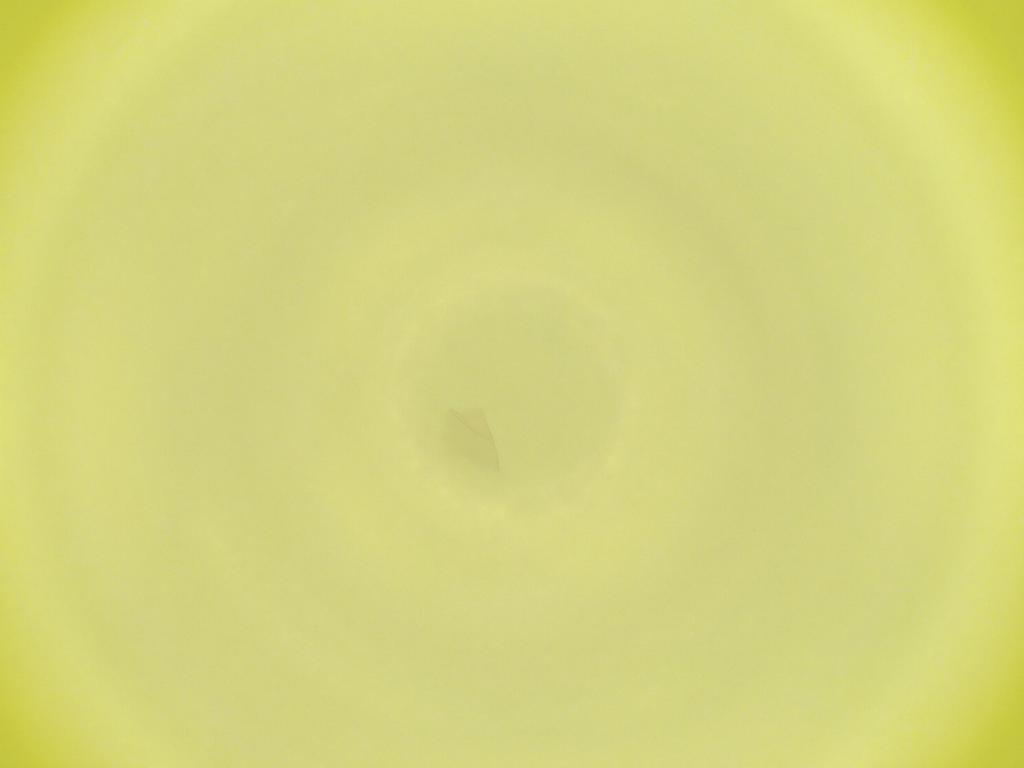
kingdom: Animalia
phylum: Arthropoda
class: Insecta
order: Diptera
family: Cecidomyiidae
